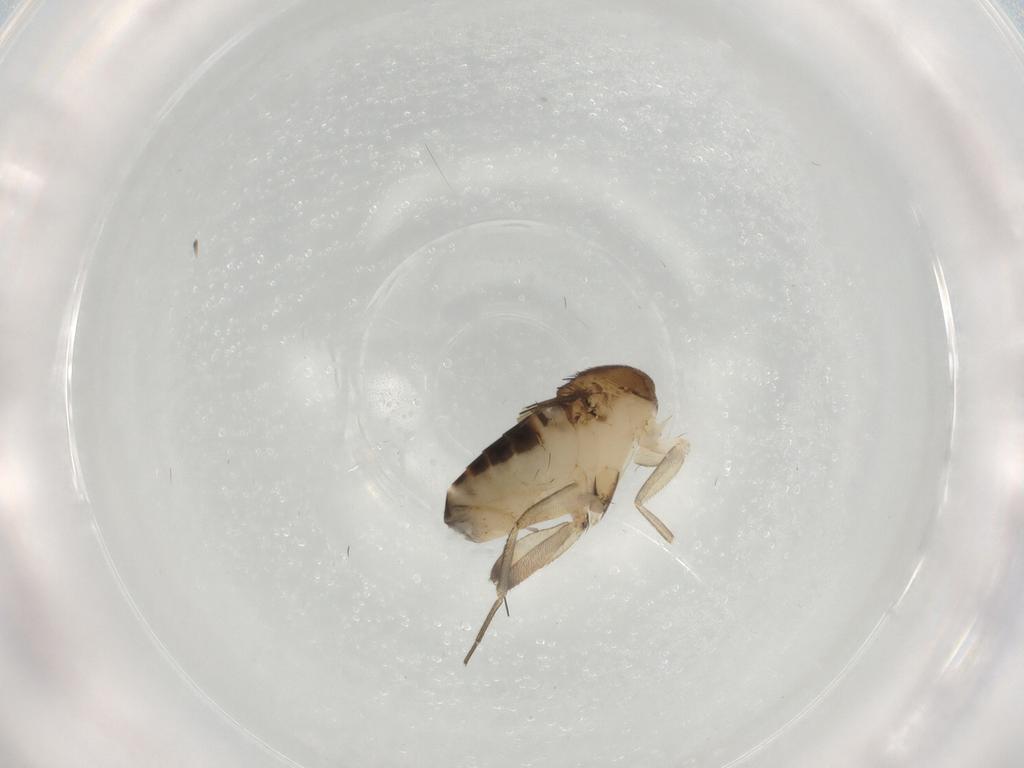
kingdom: Animalia
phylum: Arthropoda
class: Insecta
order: Diptera
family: Phoridae
